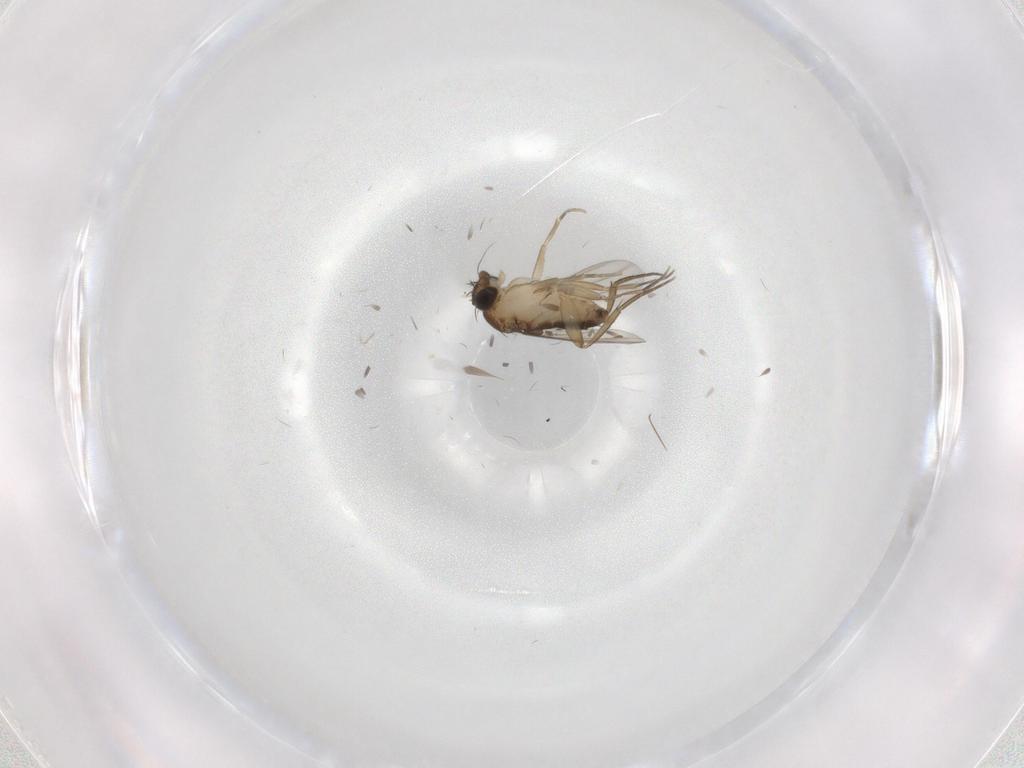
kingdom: Animalia
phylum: Arthropoda
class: Insecta
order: Diptera
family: Phoridae
